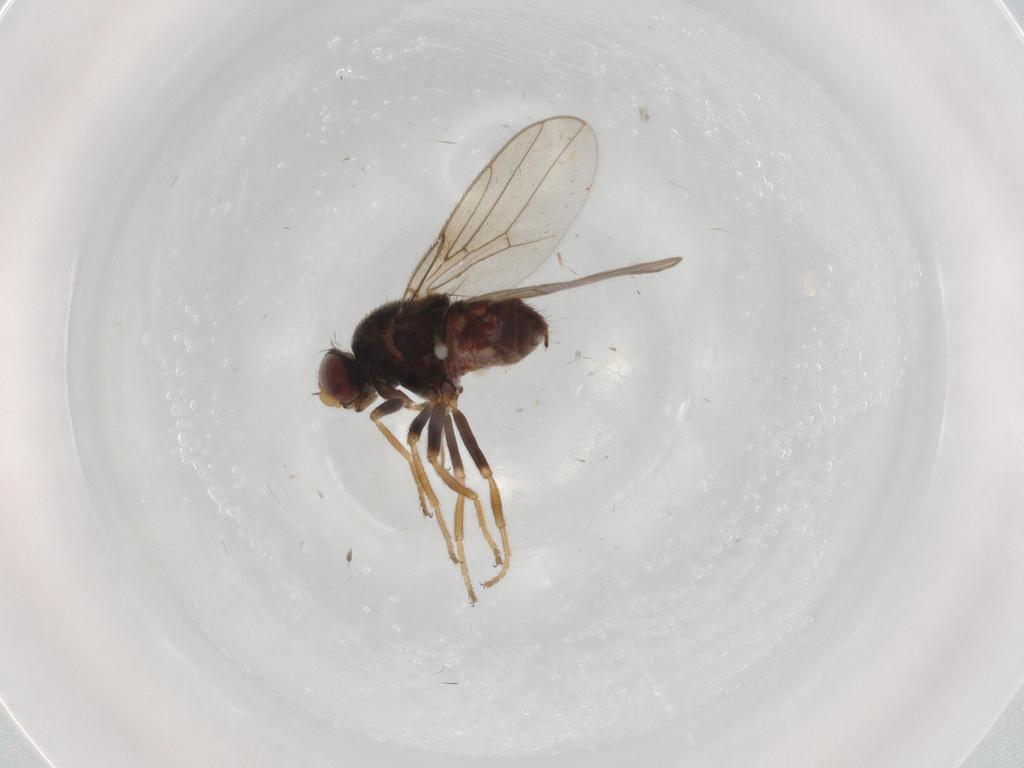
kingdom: Animalia
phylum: Arthropoda
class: Insecta
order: Diptera
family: Chloropidae
